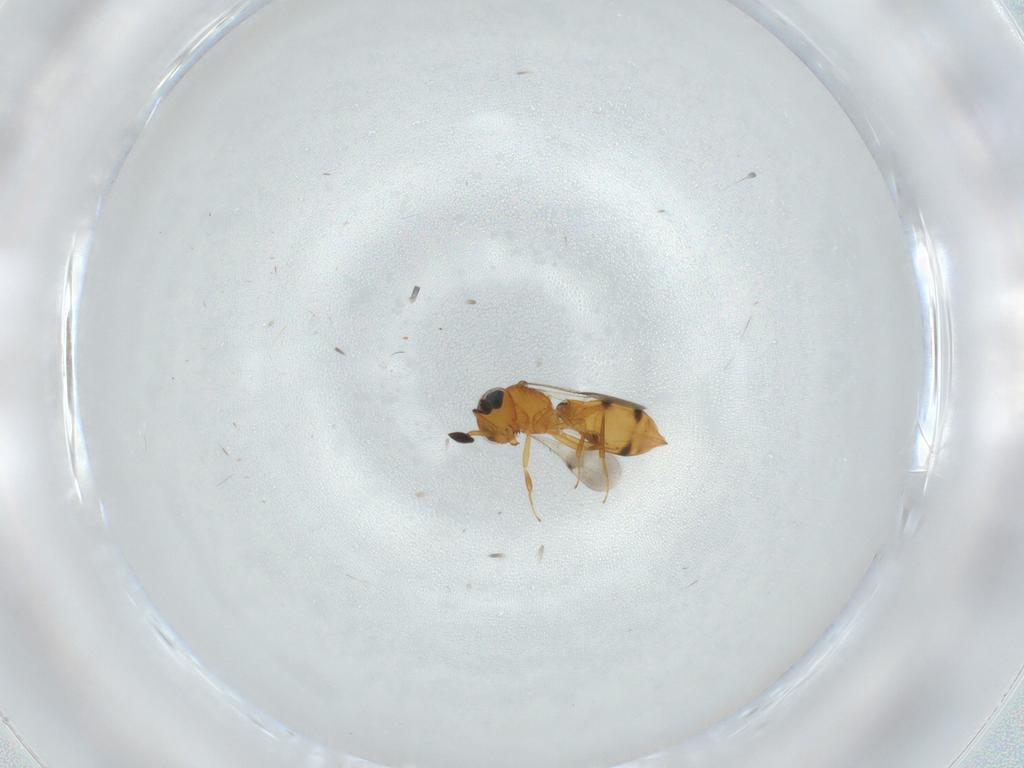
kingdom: Animalia
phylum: Arthropoda
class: Insecta
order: Hymenoptera
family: Scelionidae
